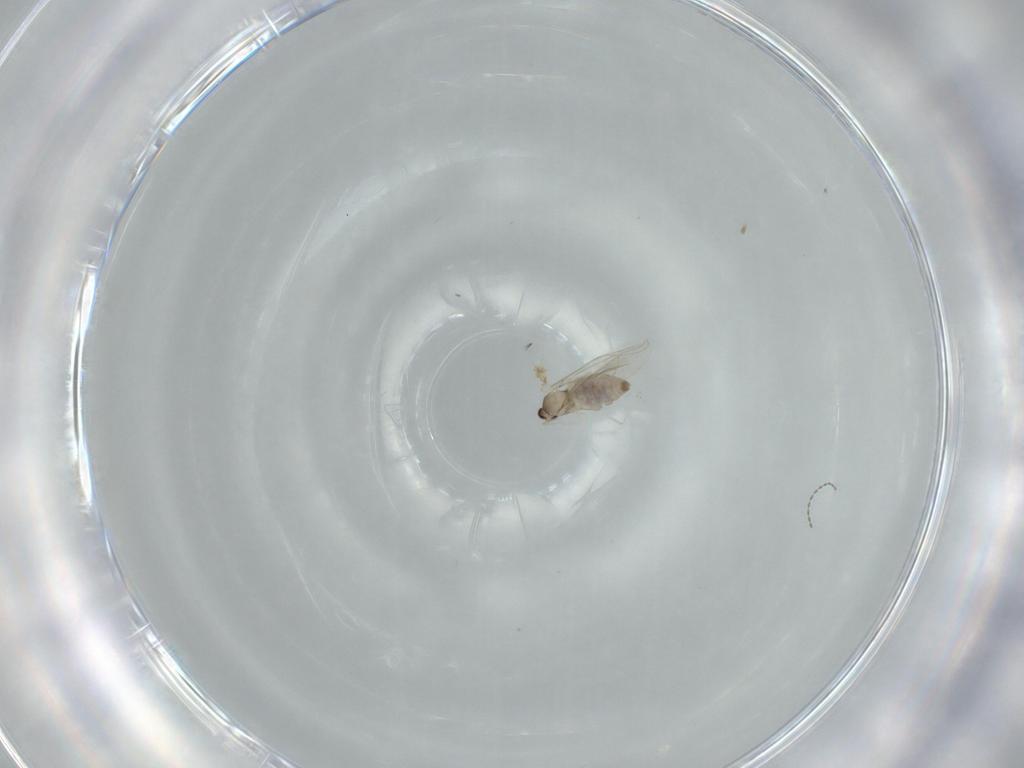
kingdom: Animalia
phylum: Arthropoda
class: Insecta
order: Diptera
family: Cecidomyiidae
